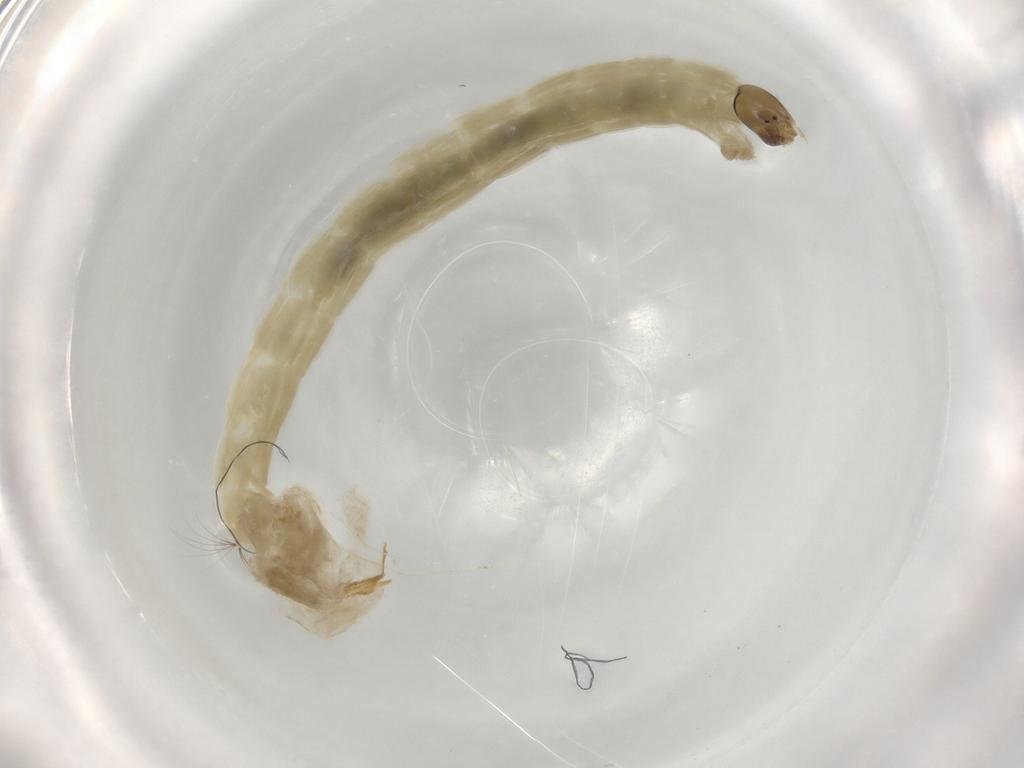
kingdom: Animalia
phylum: Arthropoda
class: Insecta
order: Diptera
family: Chironomidae
